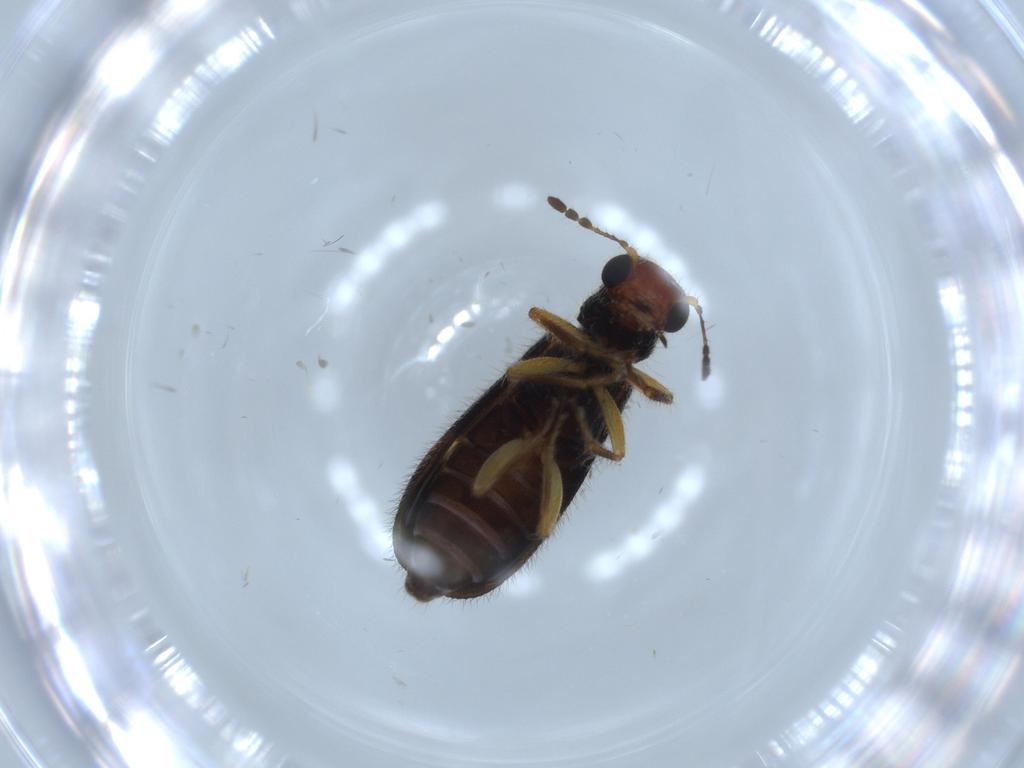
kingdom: Animalia
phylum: Arthropoda
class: Insecta
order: Coleoptera
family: Cleridae
